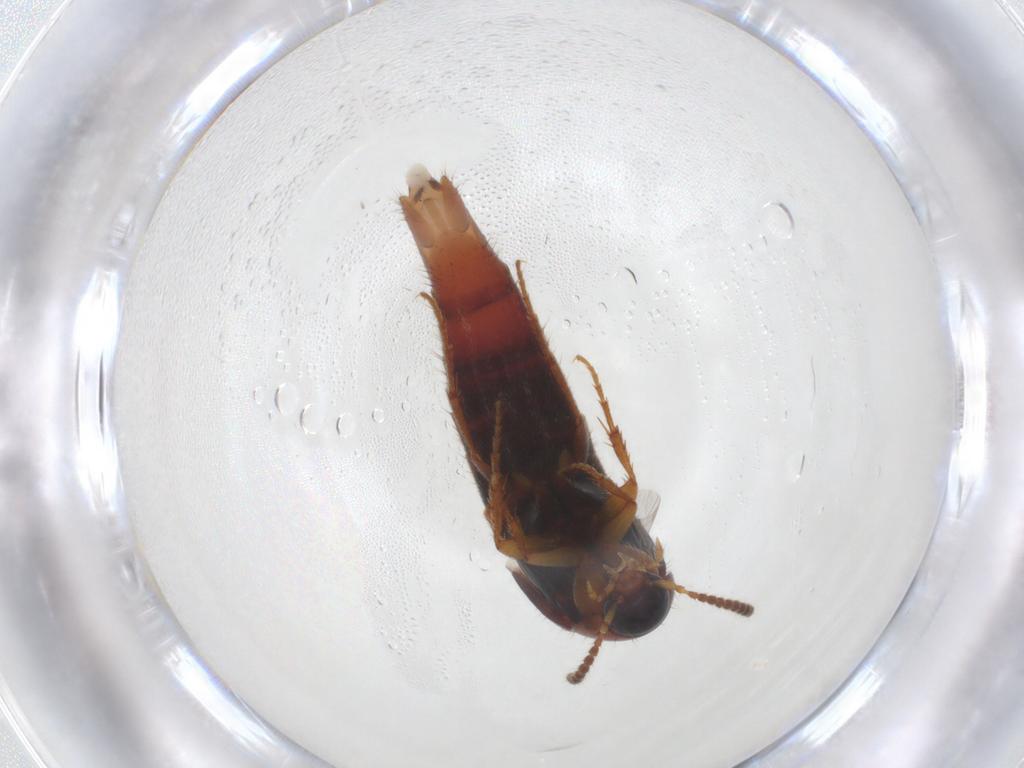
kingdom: Animalia
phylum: Arthropoda
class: Insecta
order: Coleoptera
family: Staphylinidae
